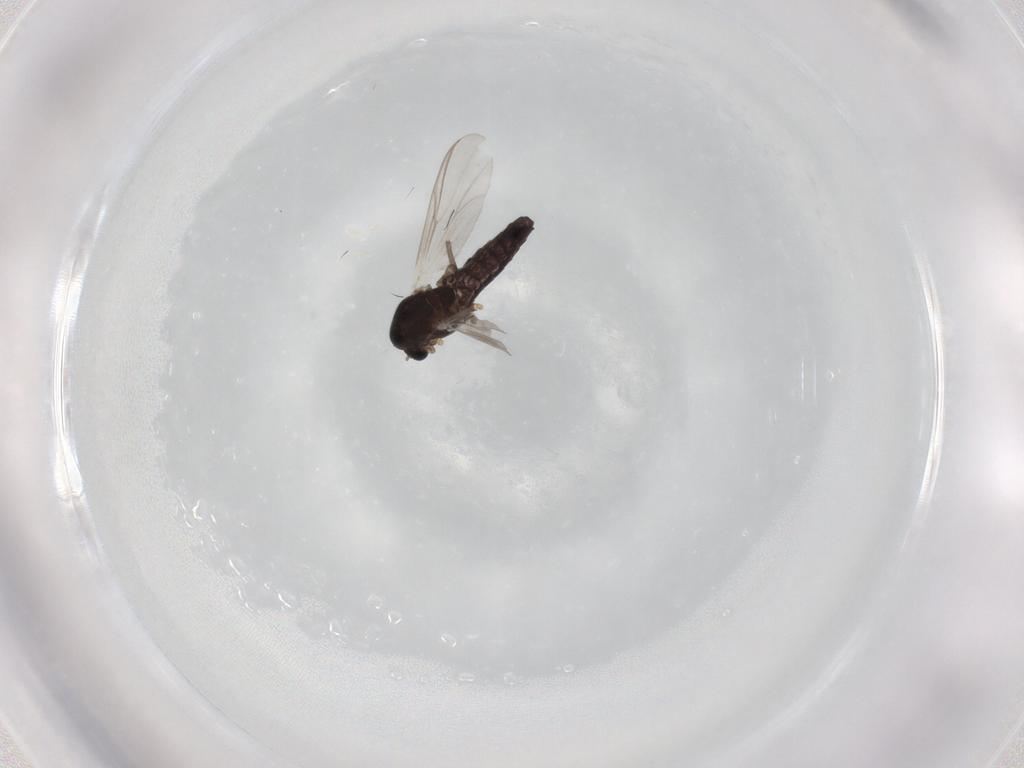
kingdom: Animalia
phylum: Arthropoda
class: Insecta
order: Diptera
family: Chironomidae
